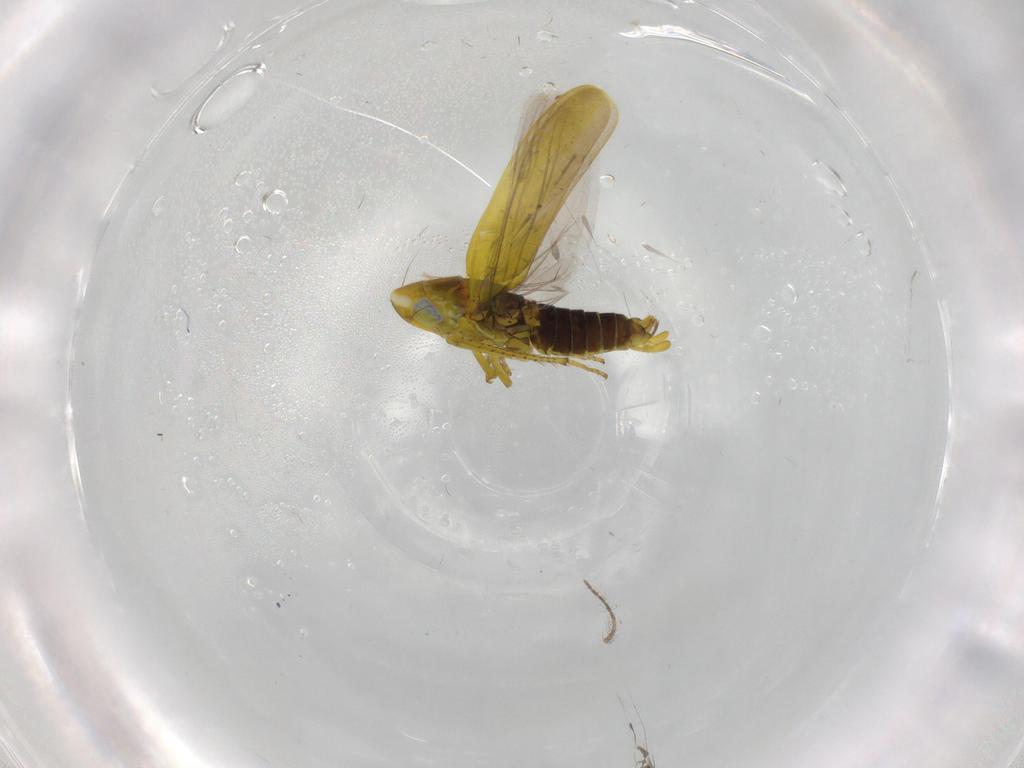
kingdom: Animalia
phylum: Arthropoda
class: Insecta
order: Hemiptera
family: Cicadellidae
